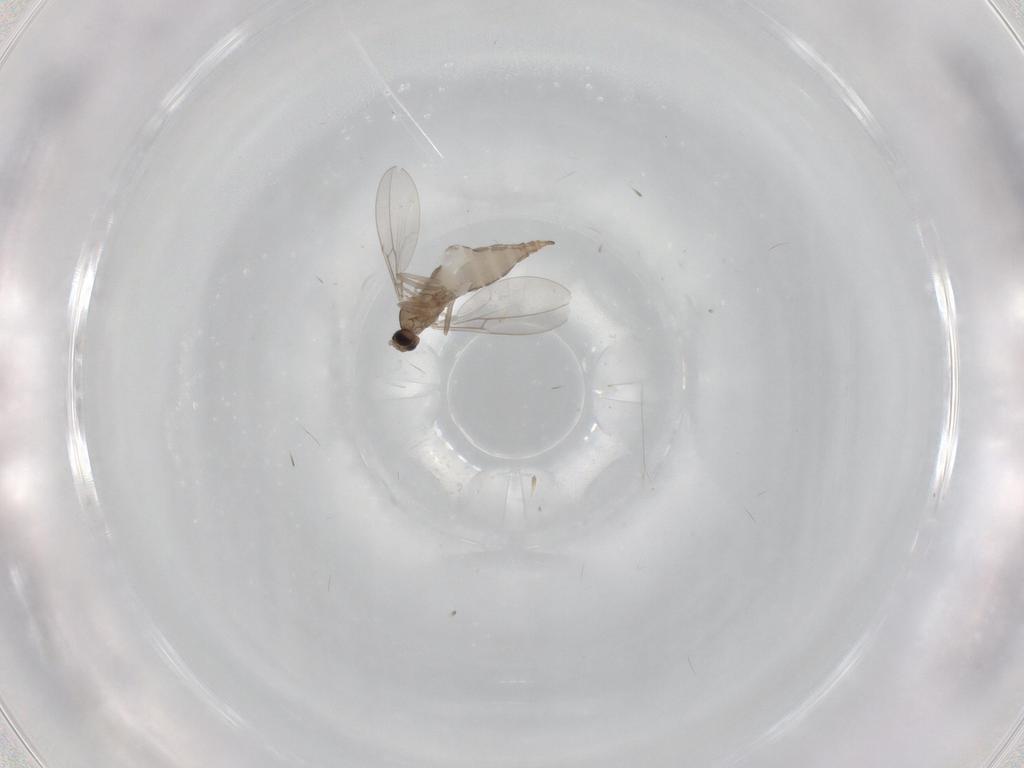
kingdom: Animalia
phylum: Arthropoda
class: Insecta
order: Diptera
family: Cecidomyiidae
